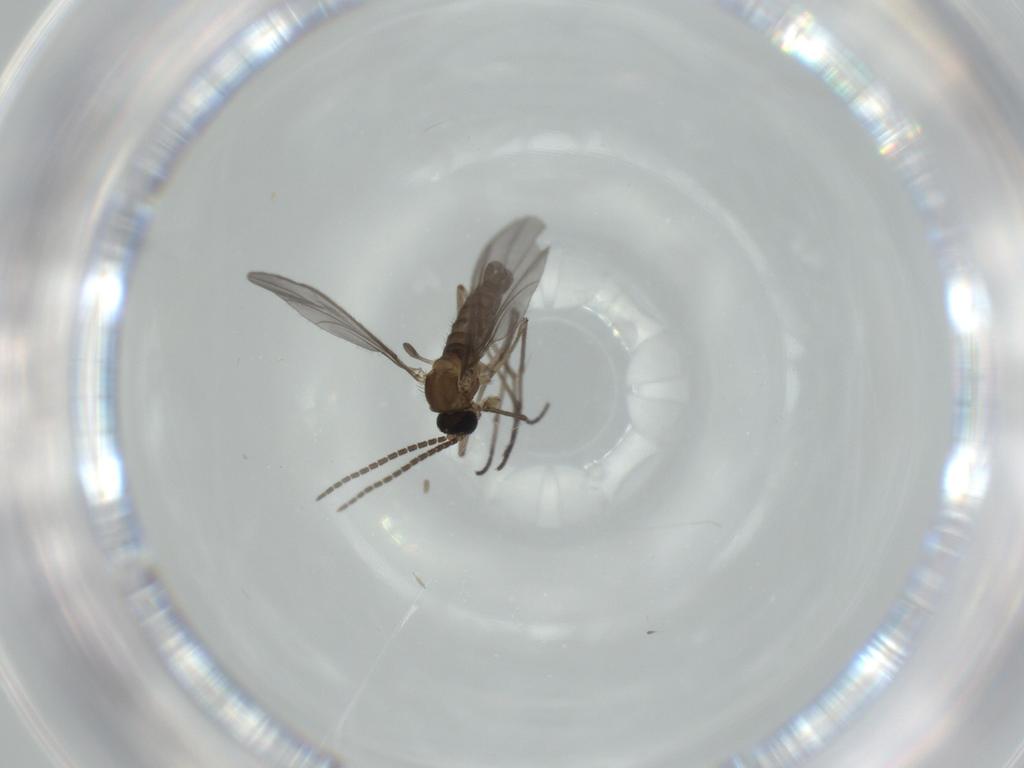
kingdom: Animalia
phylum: Arthropoda
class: Insecta
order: Diptera
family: Sciaridae
